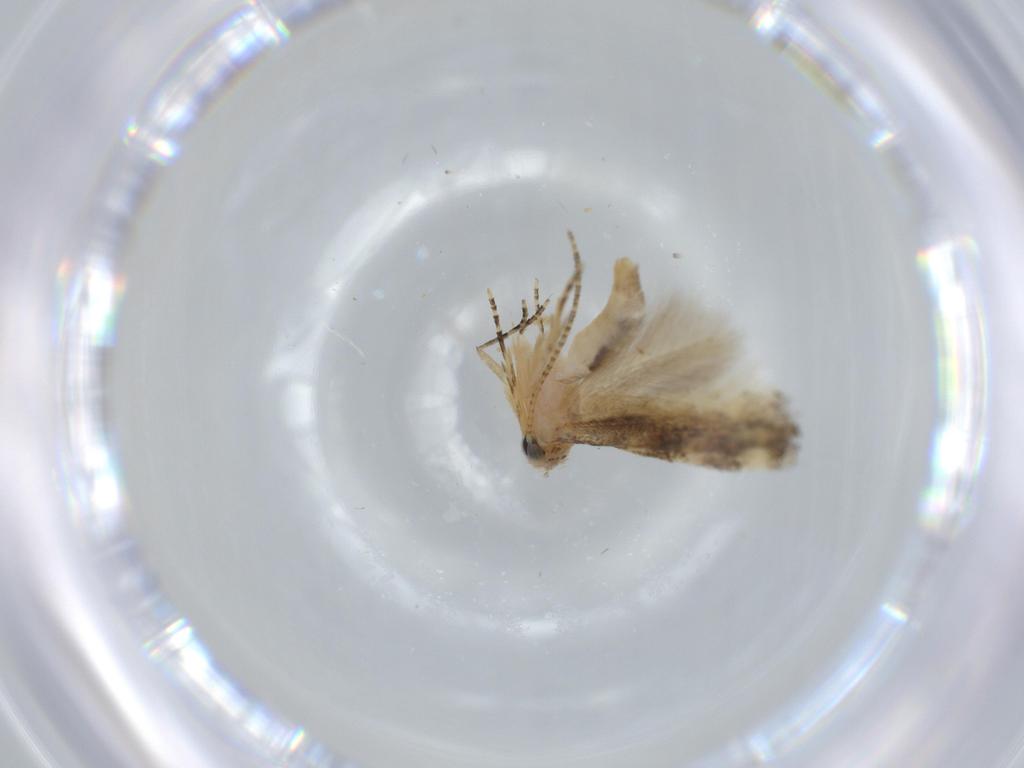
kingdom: Animalia
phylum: Arthropoda
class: Insecta
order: Lepidoptera
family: Bucculatricidae
